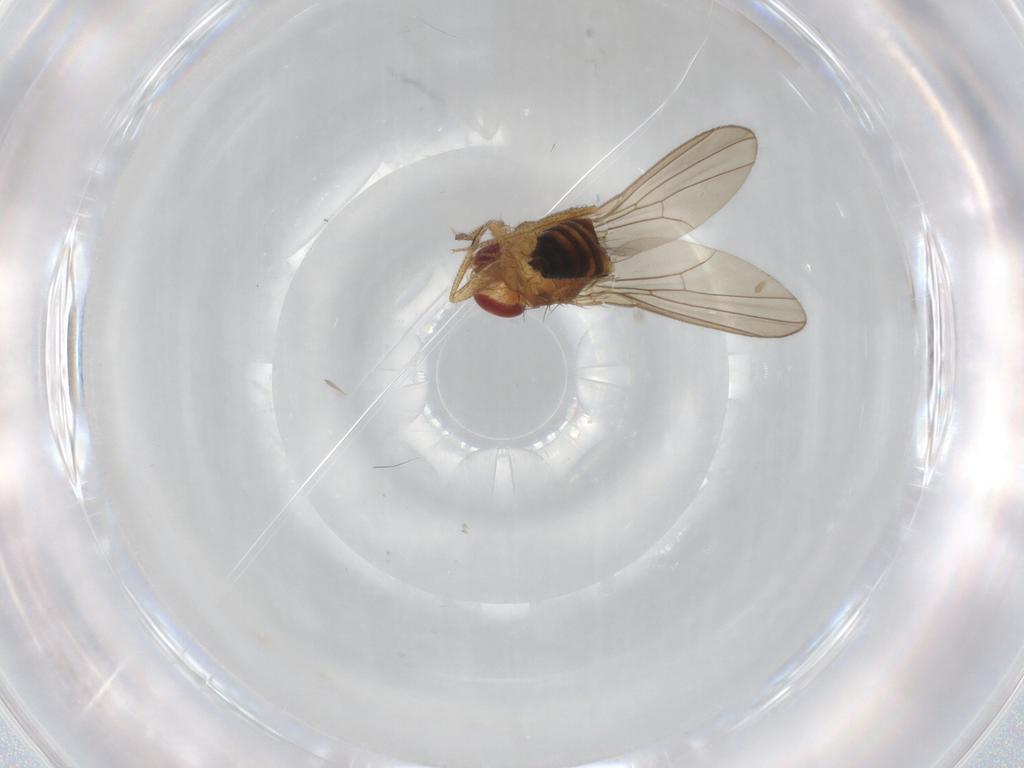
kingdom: Animalia
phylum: Arthropoda
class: Insecta
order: Diptera
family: Drosophilidae
